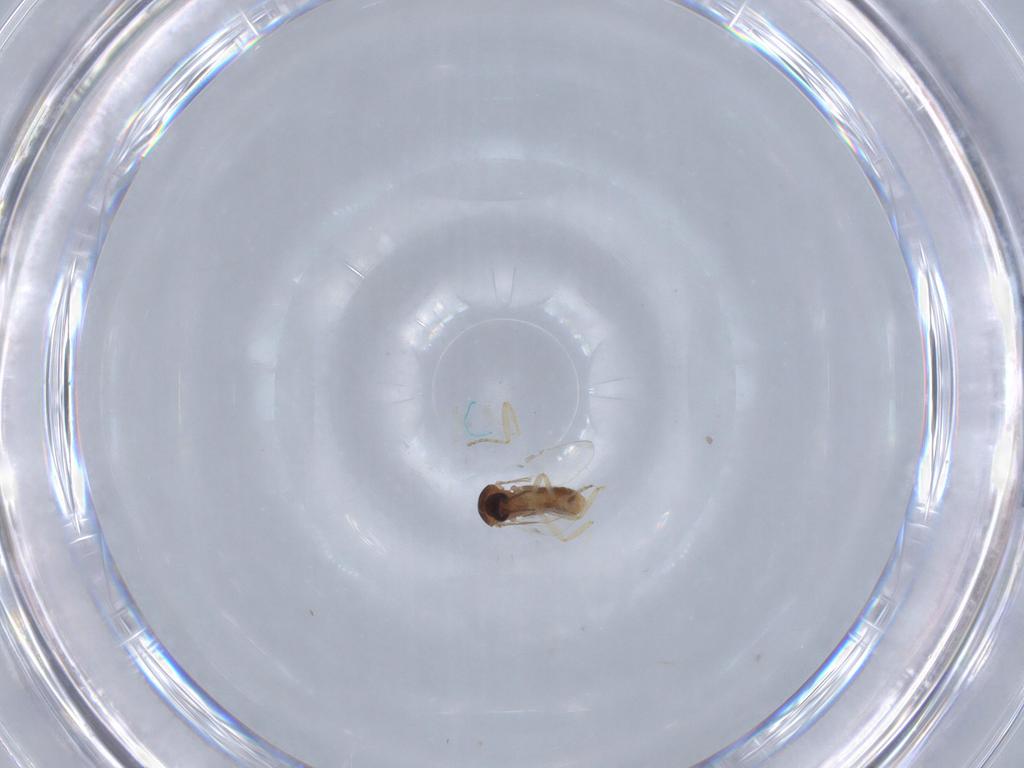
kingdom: Animalia
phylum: Arthropoda
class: Insecta
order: Diptera
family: Ceratopogonidae
